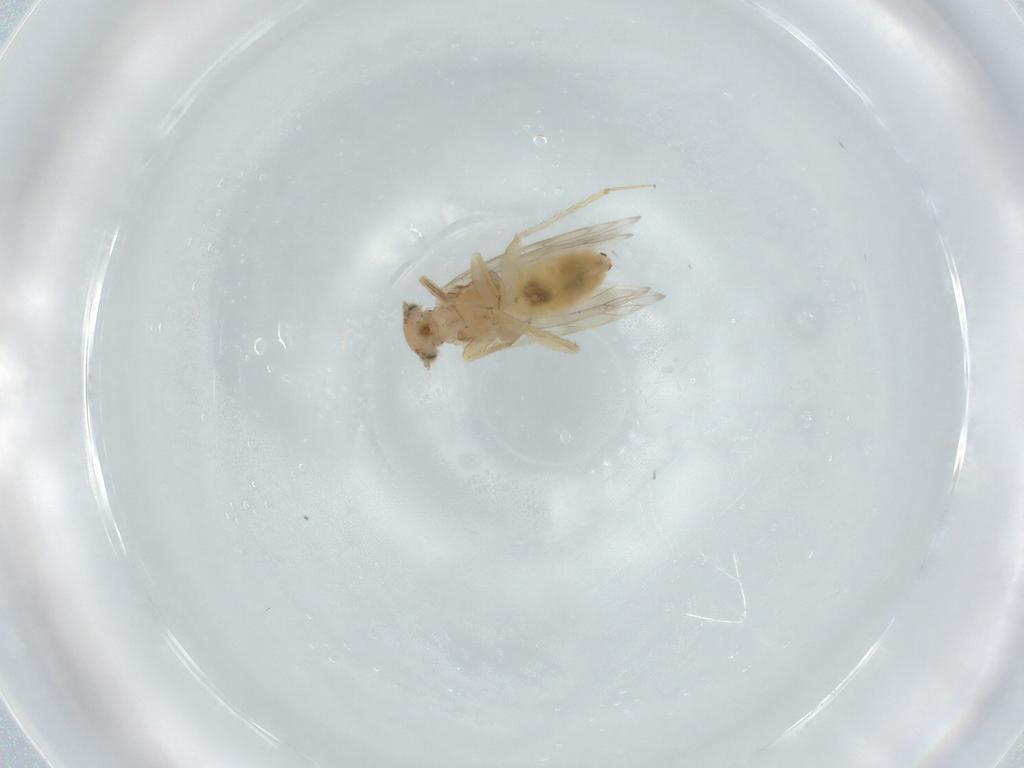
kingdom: Animalia
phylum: Arthropoda
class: Insecta
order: Psocodea
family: Lepidopsocidae
